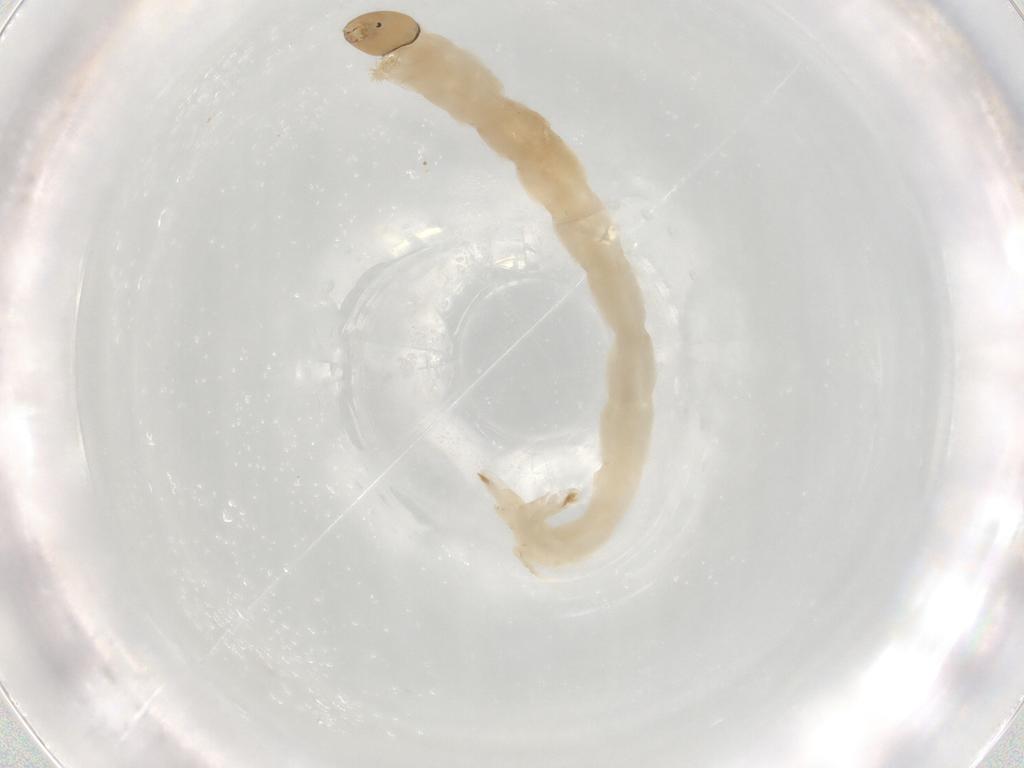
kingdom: Animalia
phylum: Arthropoda
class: Insecta
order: Diptera
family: Chironomidae
